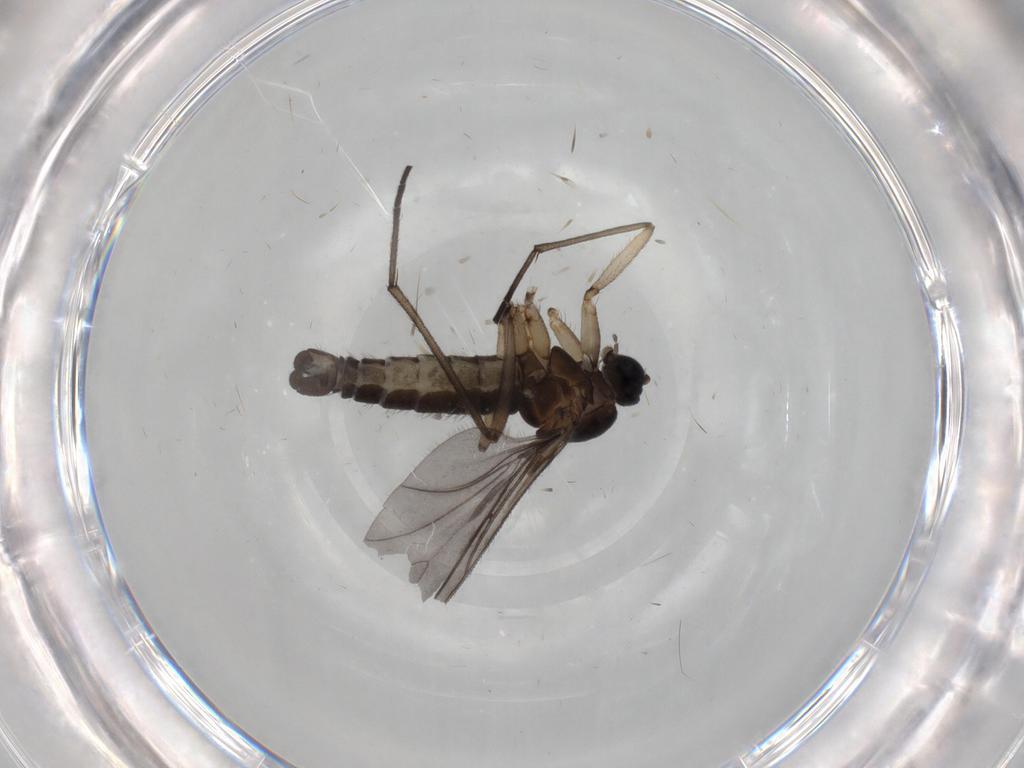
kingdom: Animalia
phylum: Arthropoda
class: Insecta
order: Diptera
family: Sciaridae
